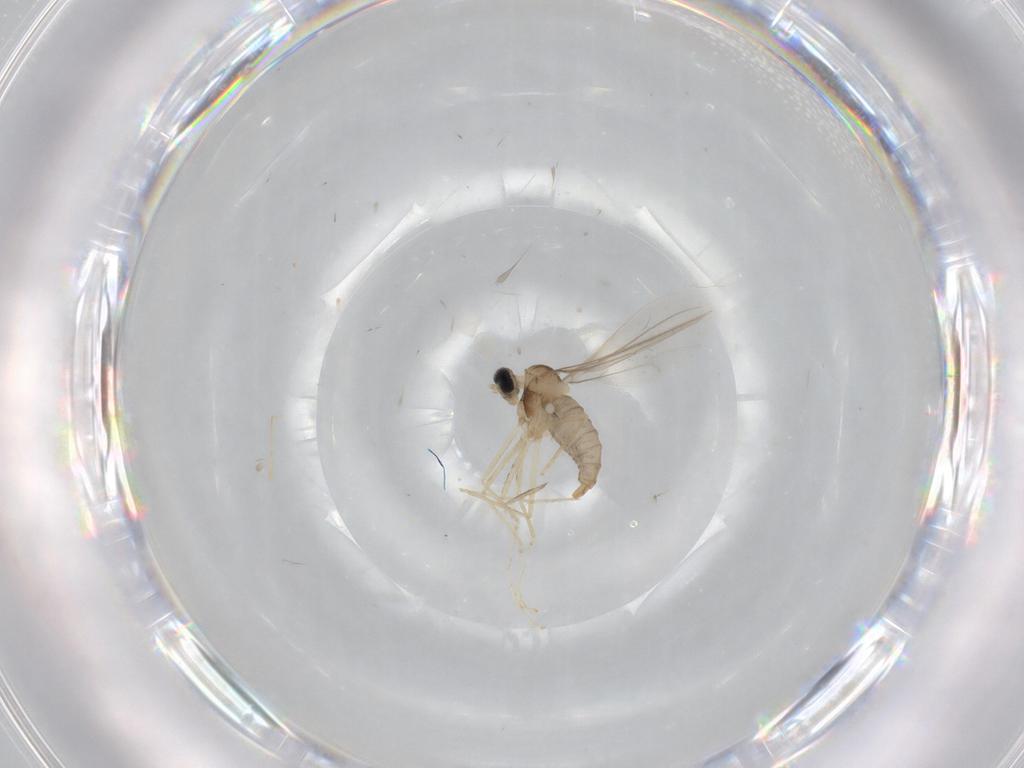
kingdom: Animalia
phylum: Arthropoda
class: Insecta
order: Diptera
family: Cecidomyiidae
